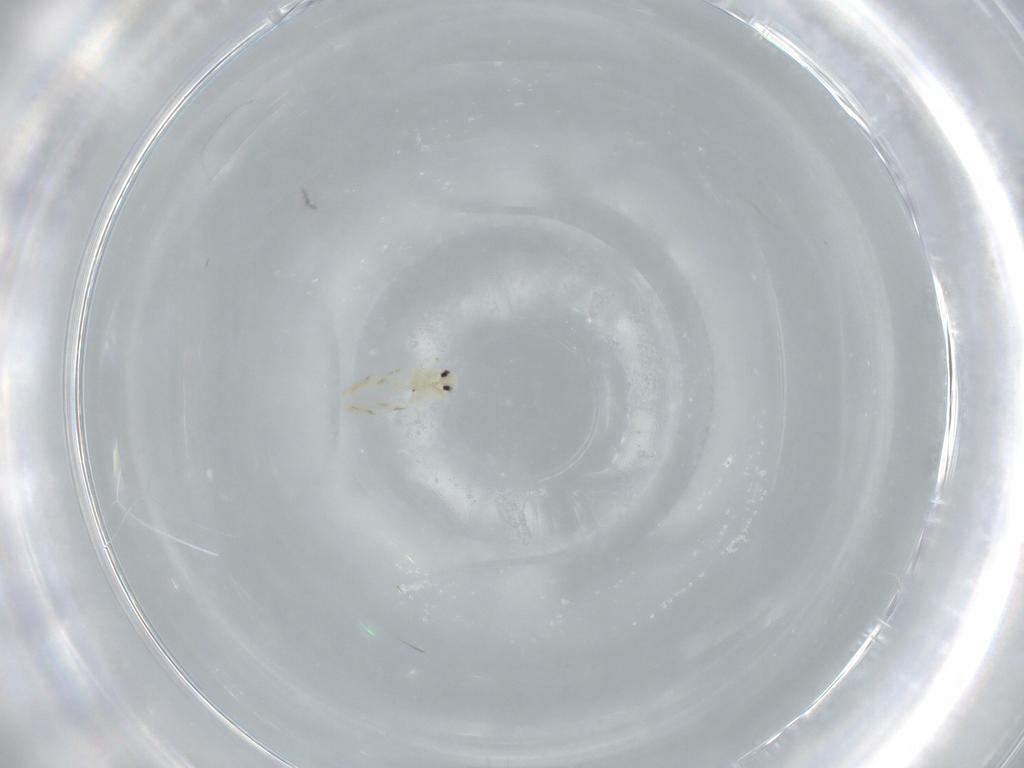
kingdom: Animalia
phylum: Arthropoda
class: Insecta
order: Hemiptera
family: Aleyrodidae
